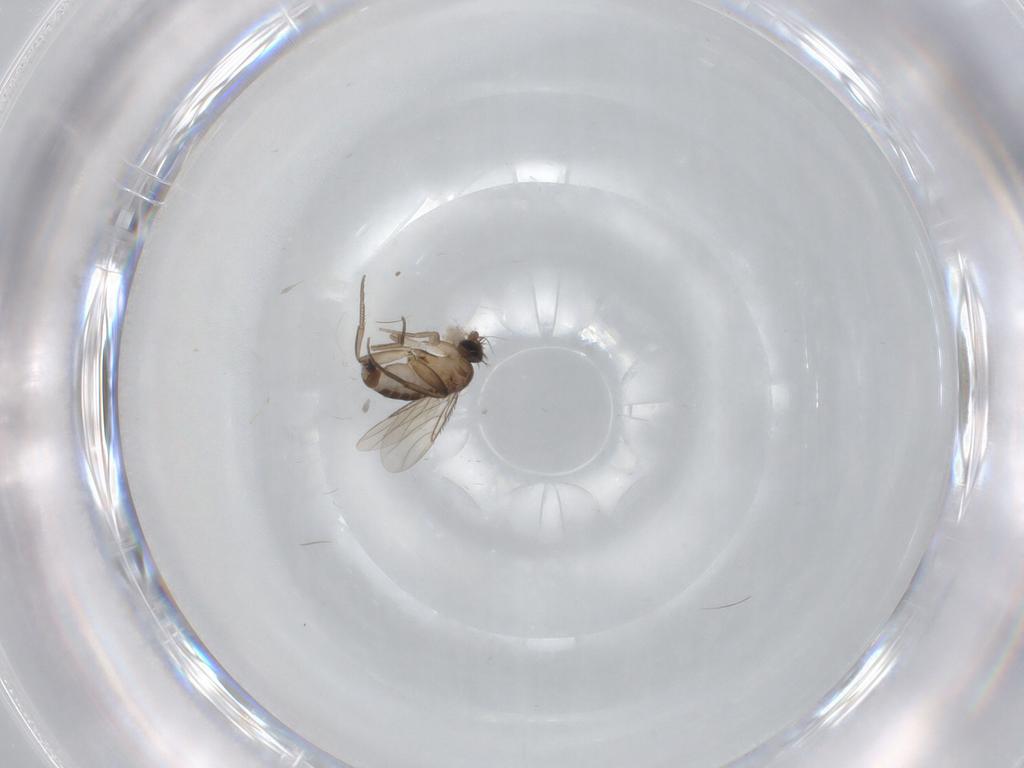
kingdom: Animalia
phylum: Arthropoda
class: Insecta
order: Diptera
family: Phoridae
